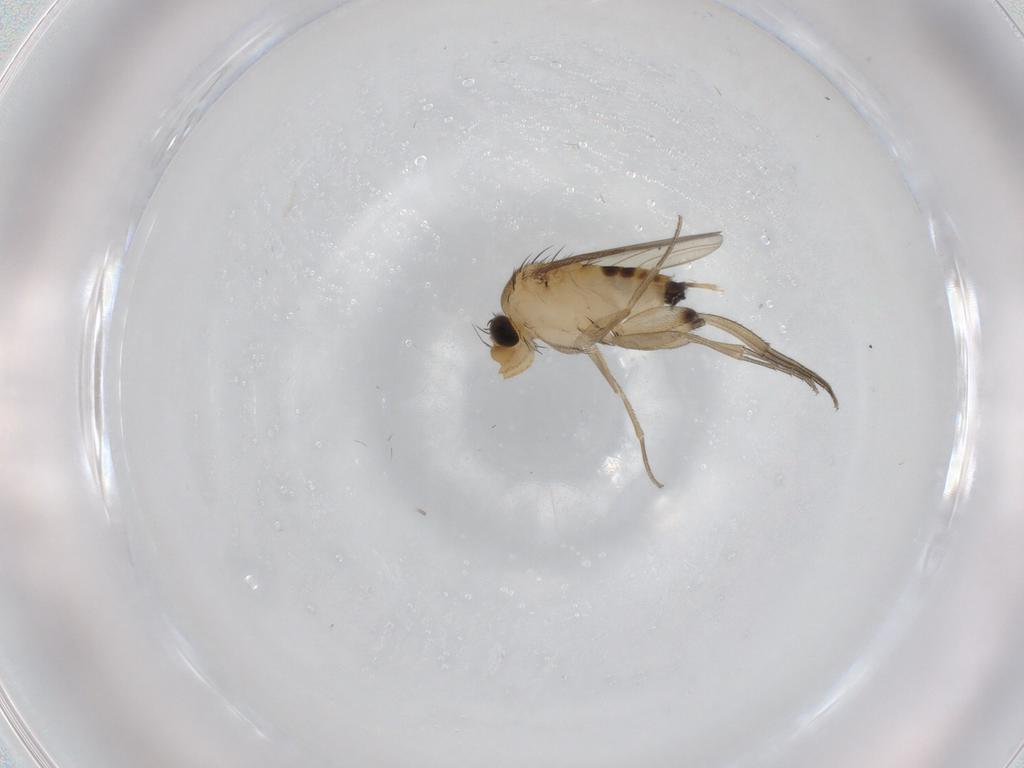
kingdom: Animalia
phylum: Arthropoda
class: Insecta
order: Diptera
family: Phoridae
